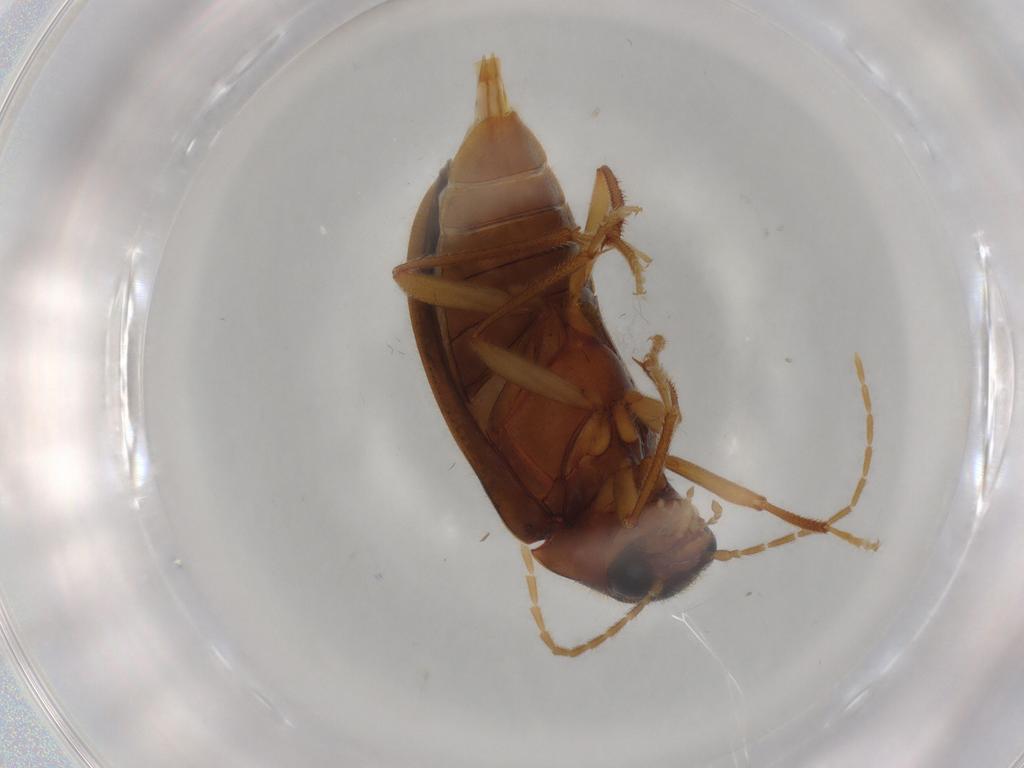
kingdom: Animalia
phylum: Arthropoda
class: Insecta
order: Coleoptera
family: Ptilodactylidae
